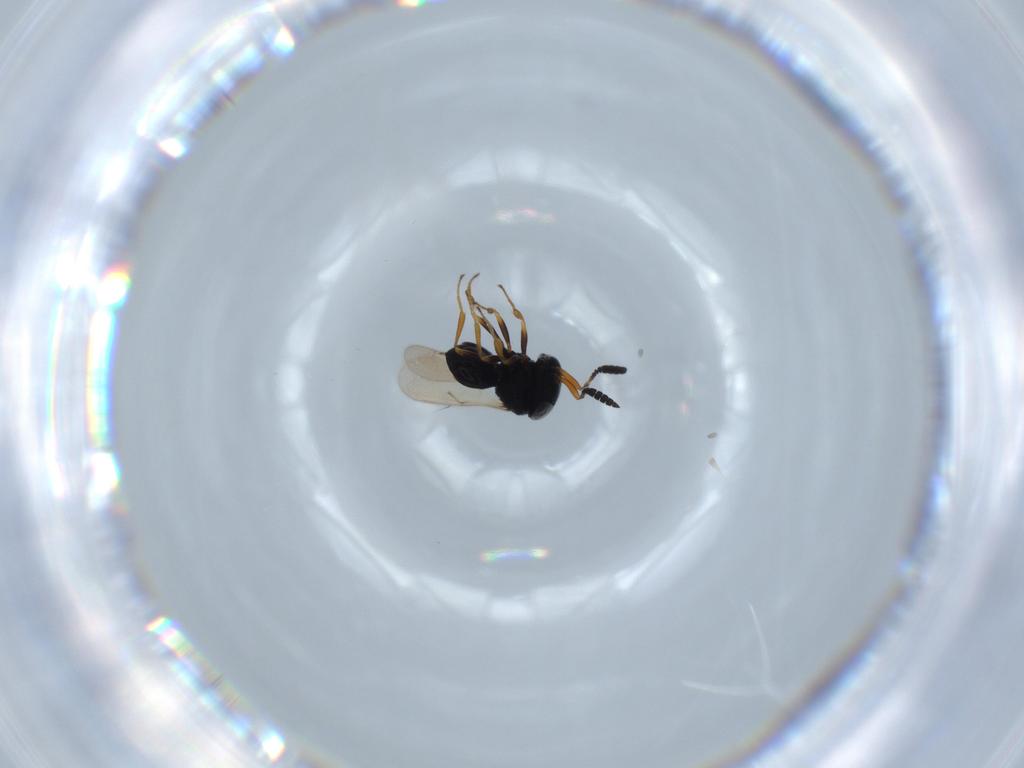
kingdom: Animalia
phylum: Arthropoda
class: Insecta
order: Hymenoptera
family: Scelionidae
